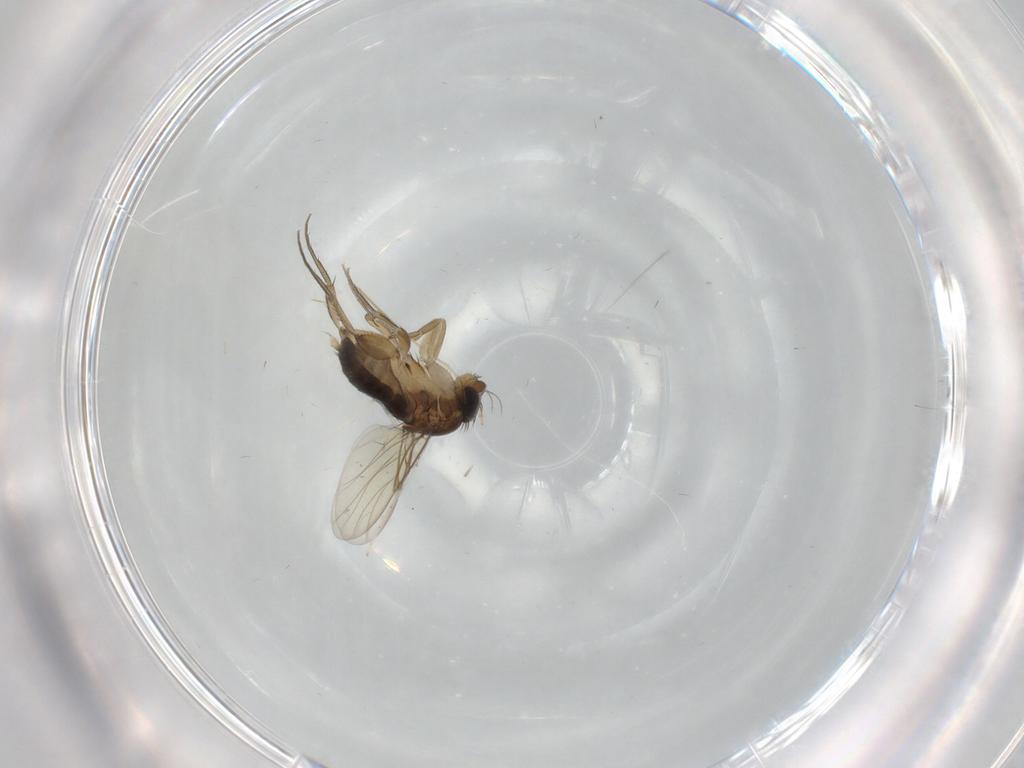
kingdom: Animalia
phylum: Arthropoda
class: Insecta
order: Diptera
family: Phoridae
